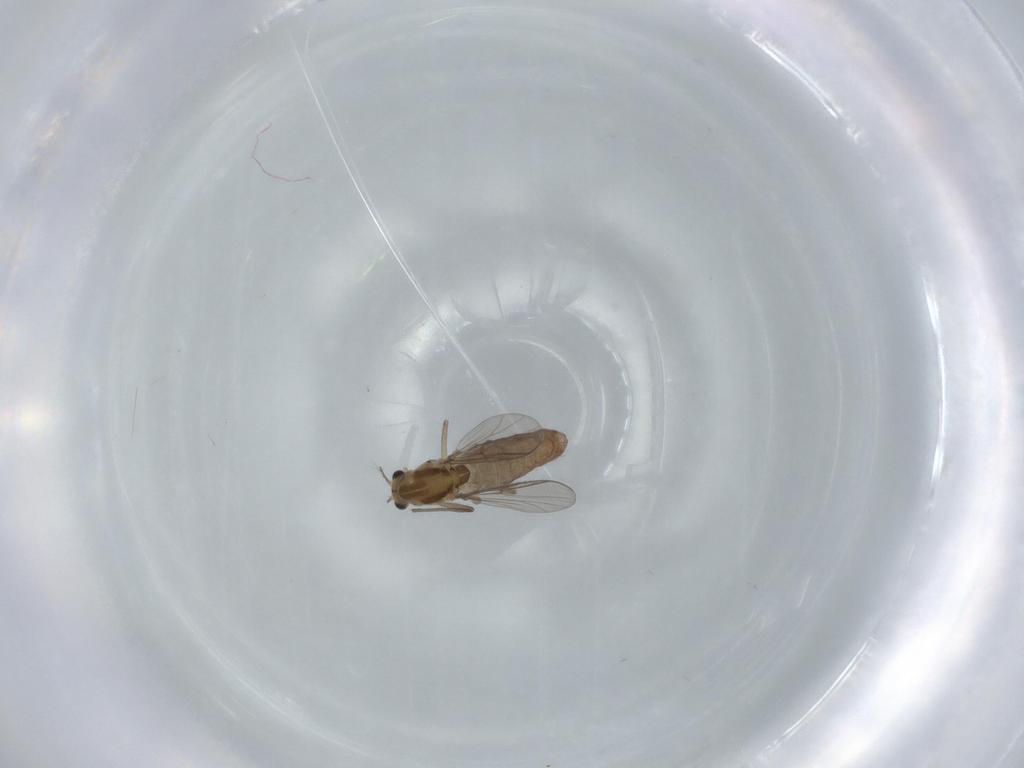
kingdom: Animalia
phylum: Arthropoda
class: Insecta
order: Diptera
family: Chironomidae
